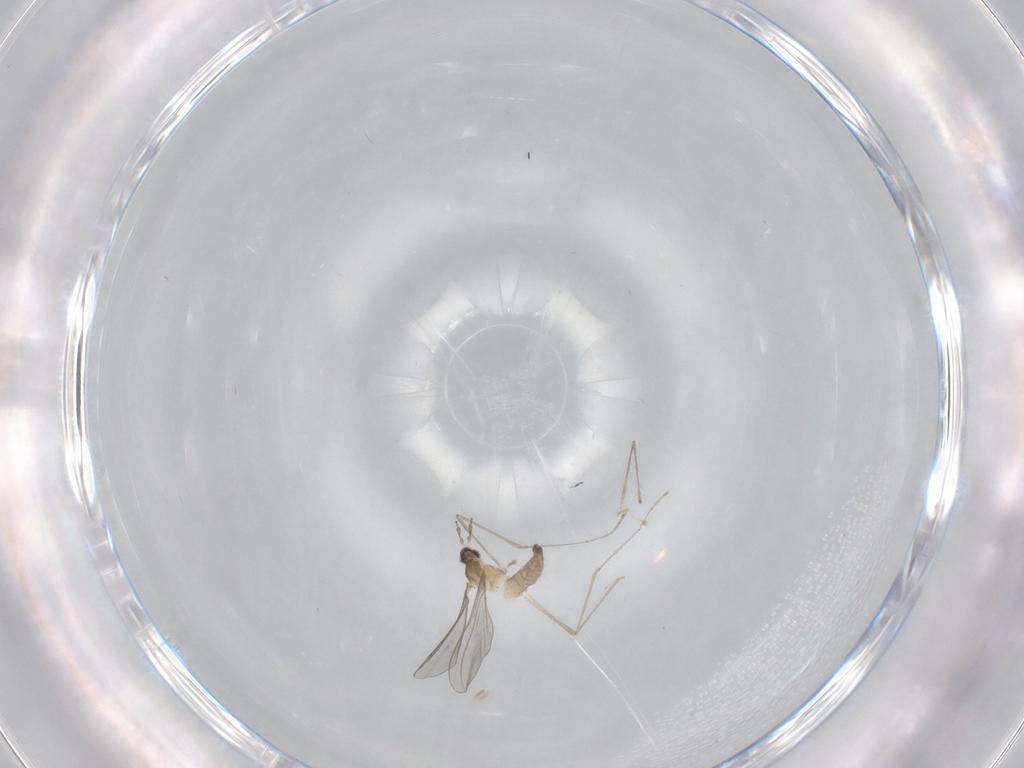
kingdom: Animalia
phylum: Arthropoda
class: Insecta
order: Diptera
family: Cecidomyiidae
